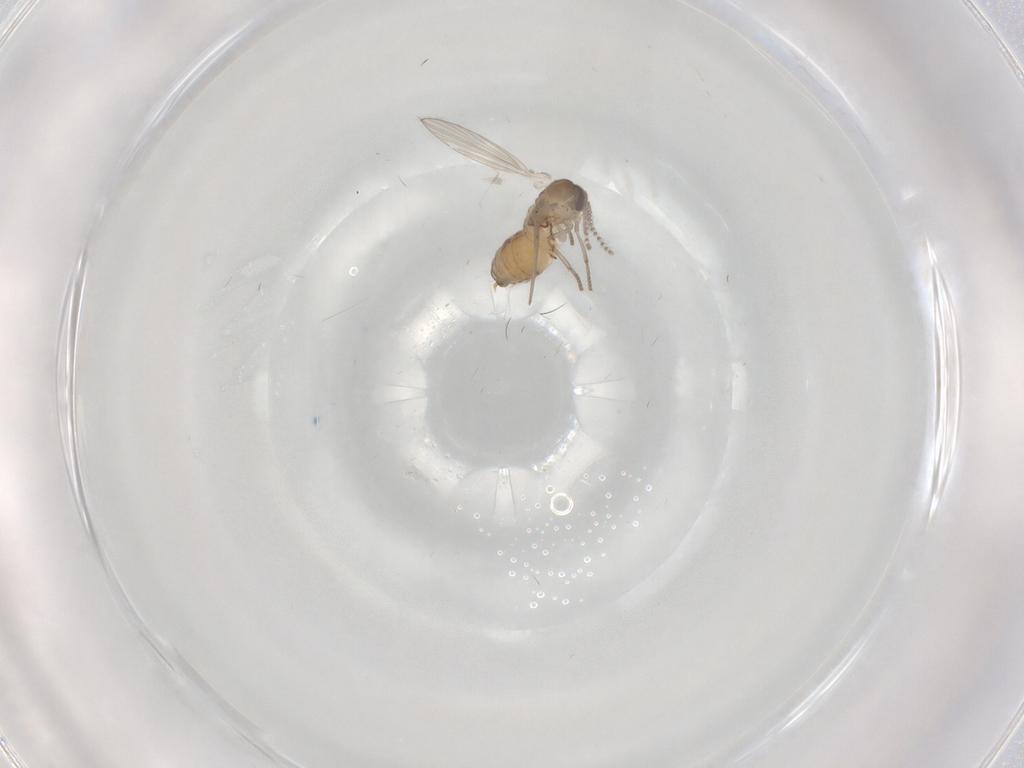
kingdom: Animalia
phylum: Arthropoda
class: Insecta
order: Diptera
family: Psychodidae
